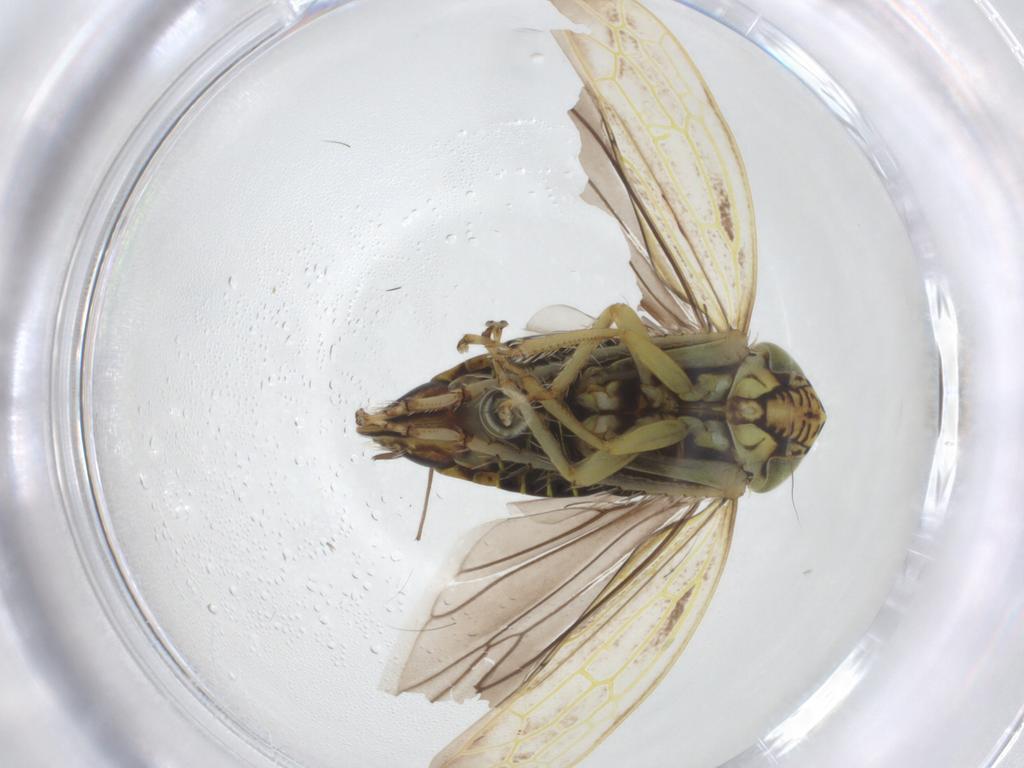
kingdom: Animalia
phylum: Arthropoda
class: Insecta
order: Hemiptera
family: Cicadellidae
